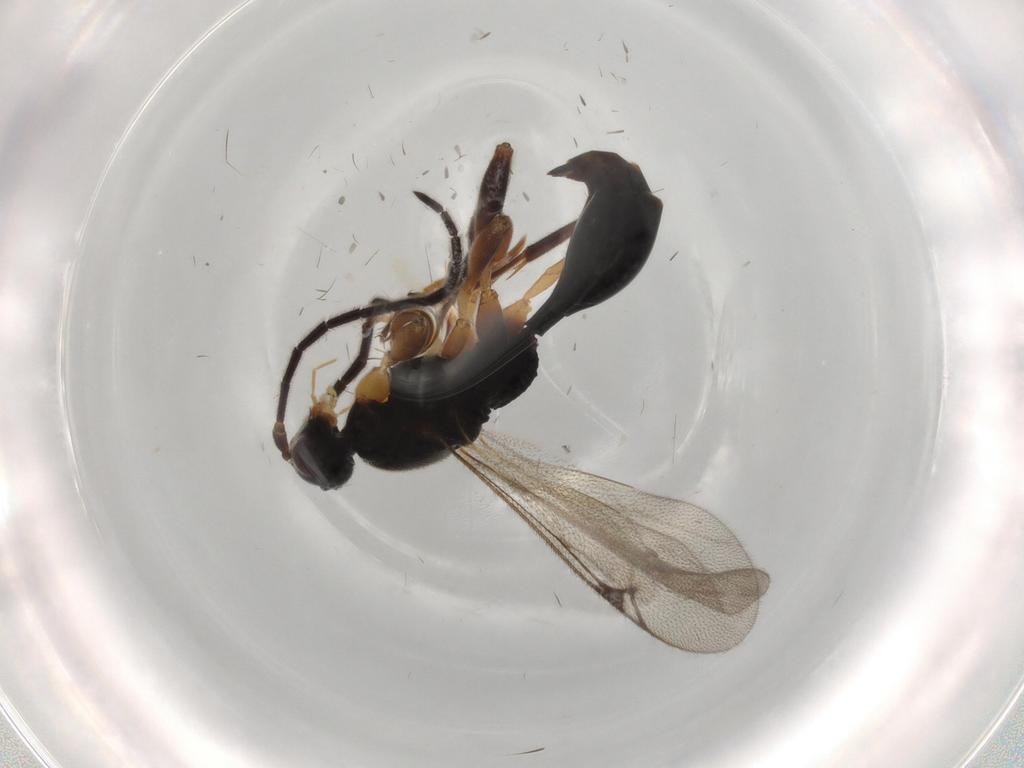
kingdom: Animalia
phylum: Arthropoda
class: Insecta
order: Hymenoptera
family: Proctotrupidae
